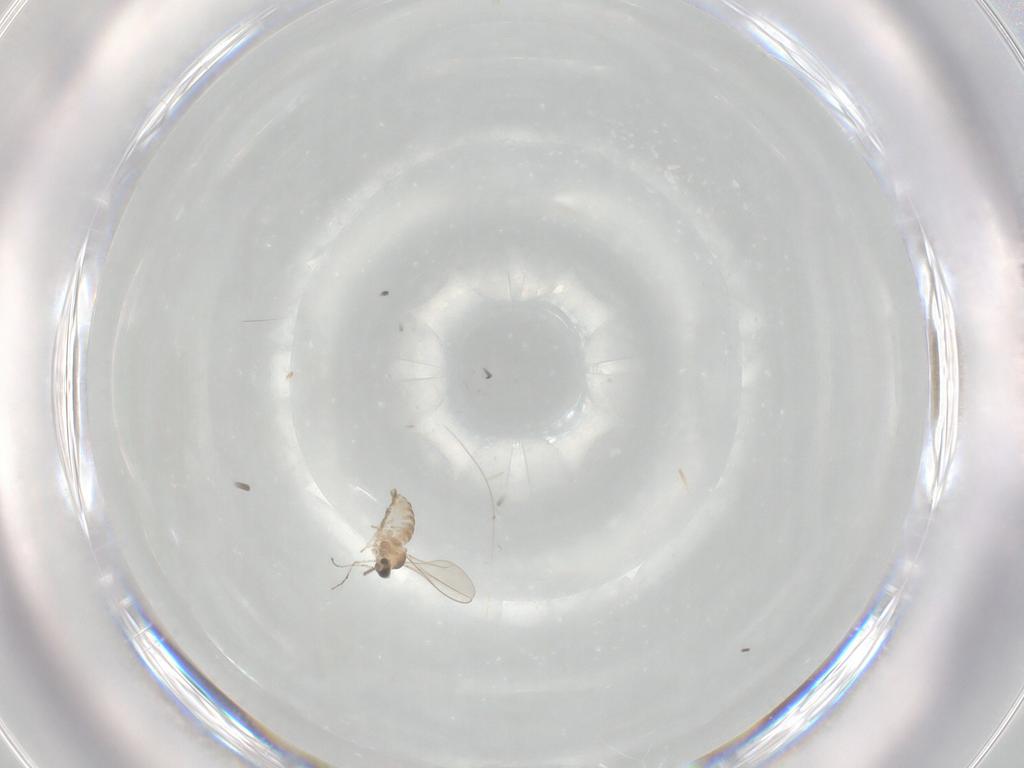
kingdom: Animalia
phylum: Arthropoda
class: Insecta
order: Diptera
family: Cecidomyiidae
